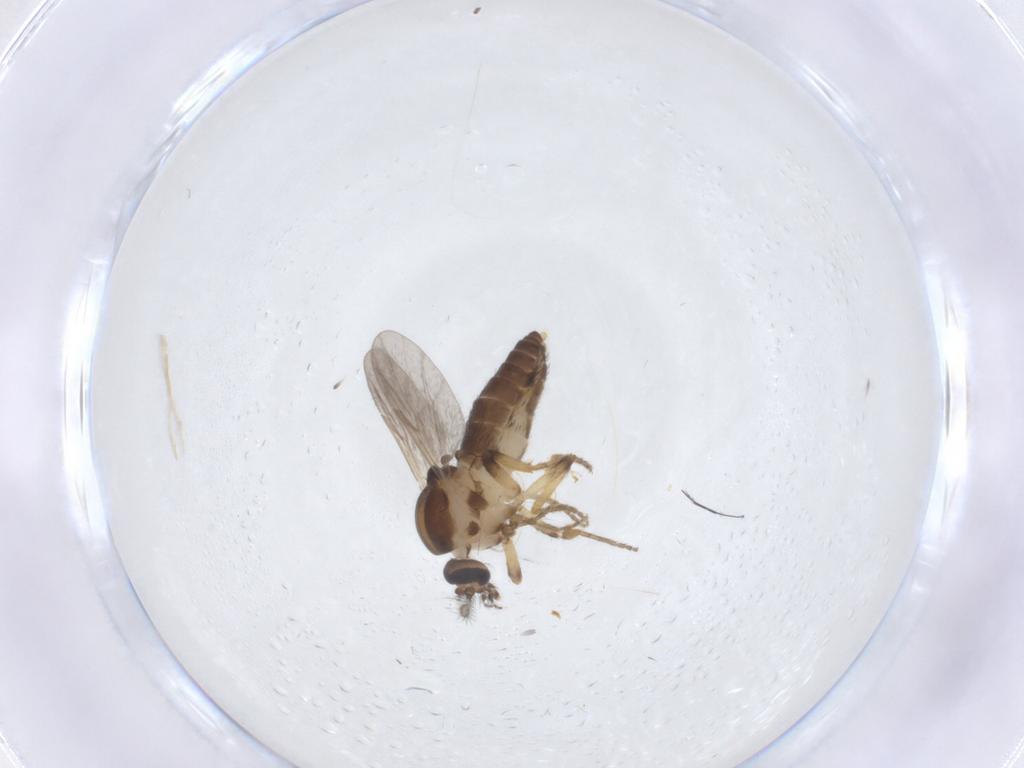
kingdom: Animalia
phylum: Arthropoda
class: Insecta
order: Diptera
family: Ceratopogonidae
